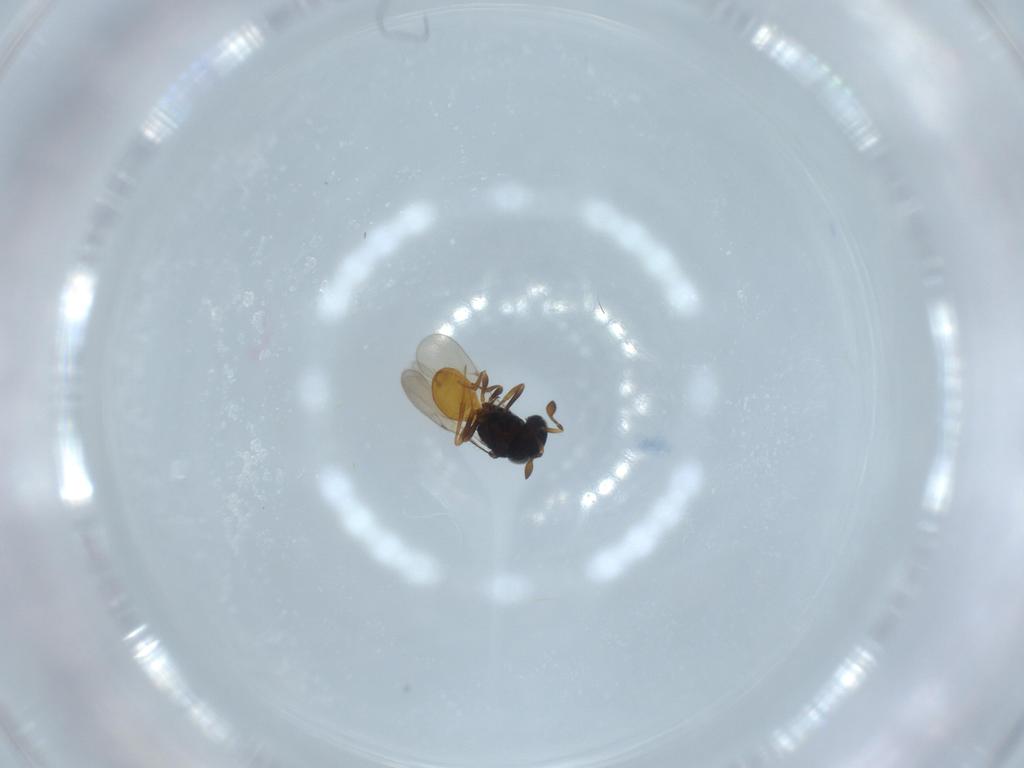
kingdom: Animalia
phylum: Arthropoda
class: Insecta
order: Hymenoptera
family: Scelionidae
